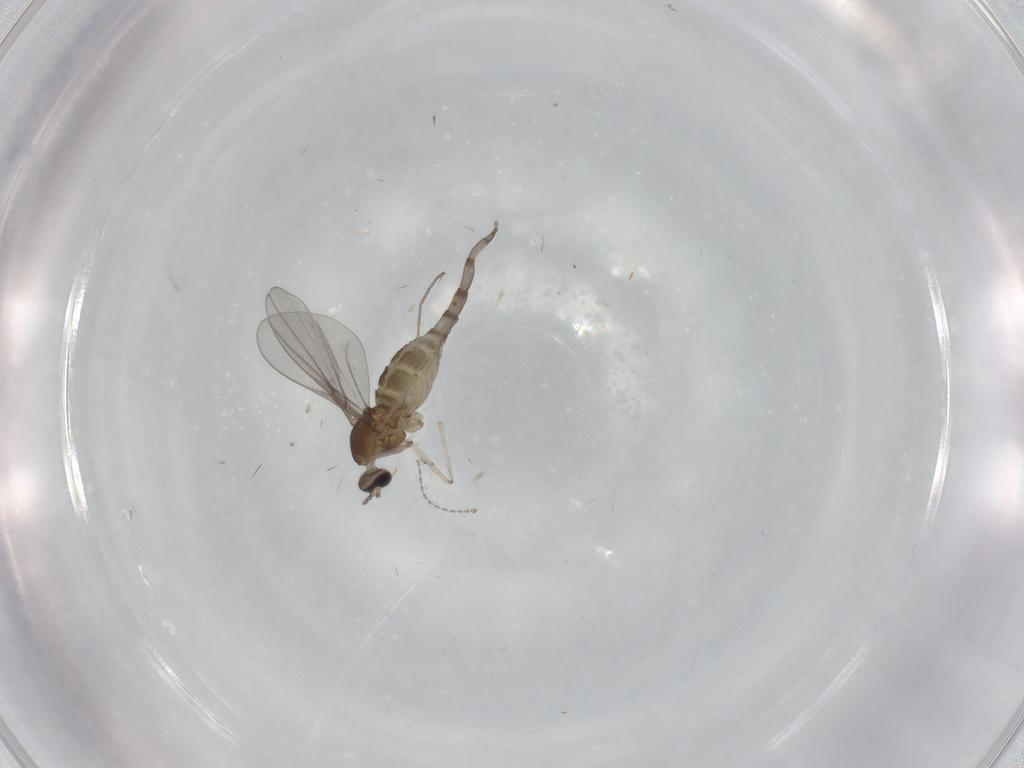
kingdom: Animalia
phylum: Arthropoda
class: Insecta
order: Diptera
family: Cecidomyiidae
